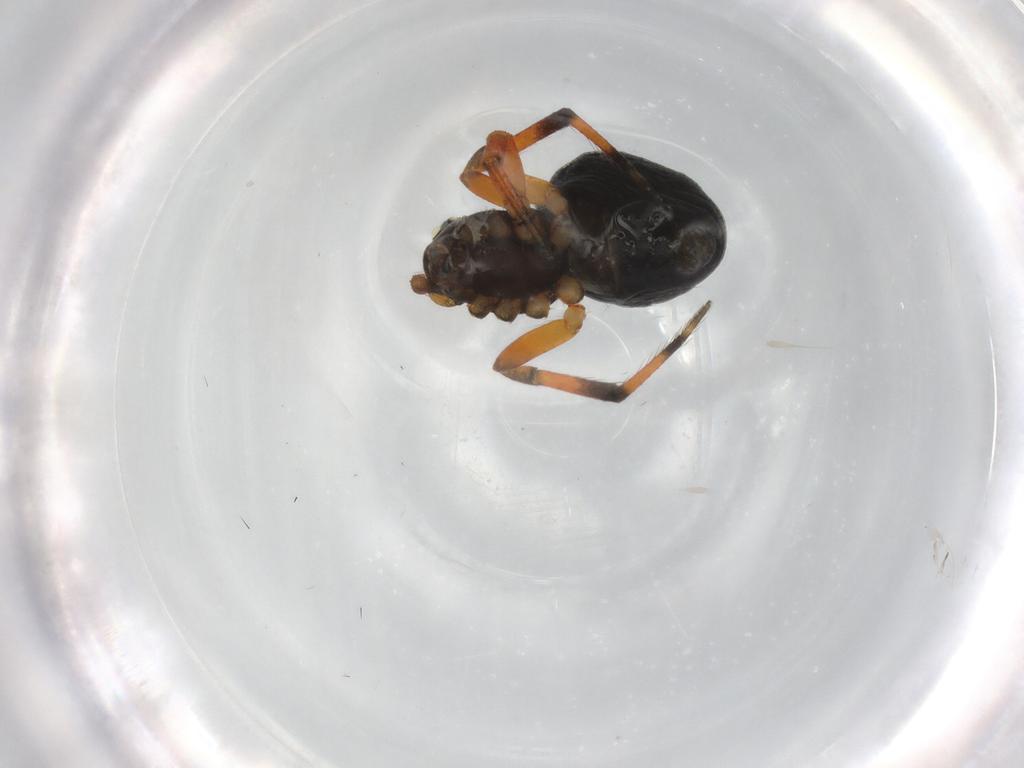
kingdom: Animalia
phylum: Arthropoda
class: Arachnida
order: Araneae
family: Theridiidae
